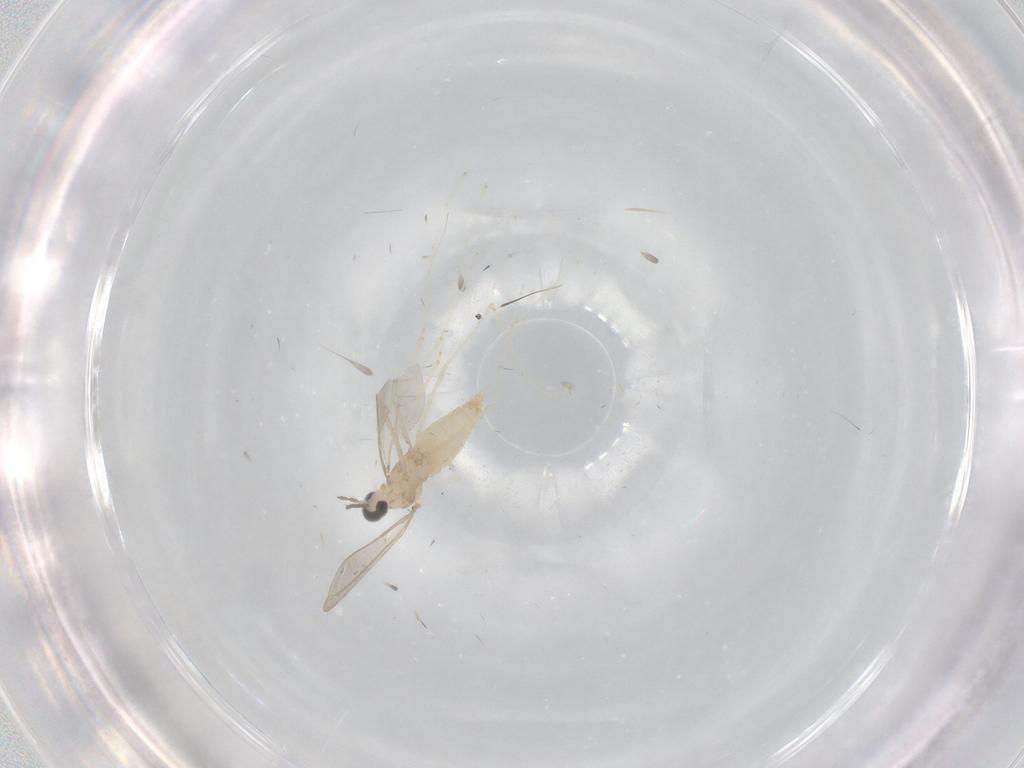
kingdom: Animalia
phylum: Arthropoda
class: Insecta
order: Diptera
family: Cecidomyiidae
